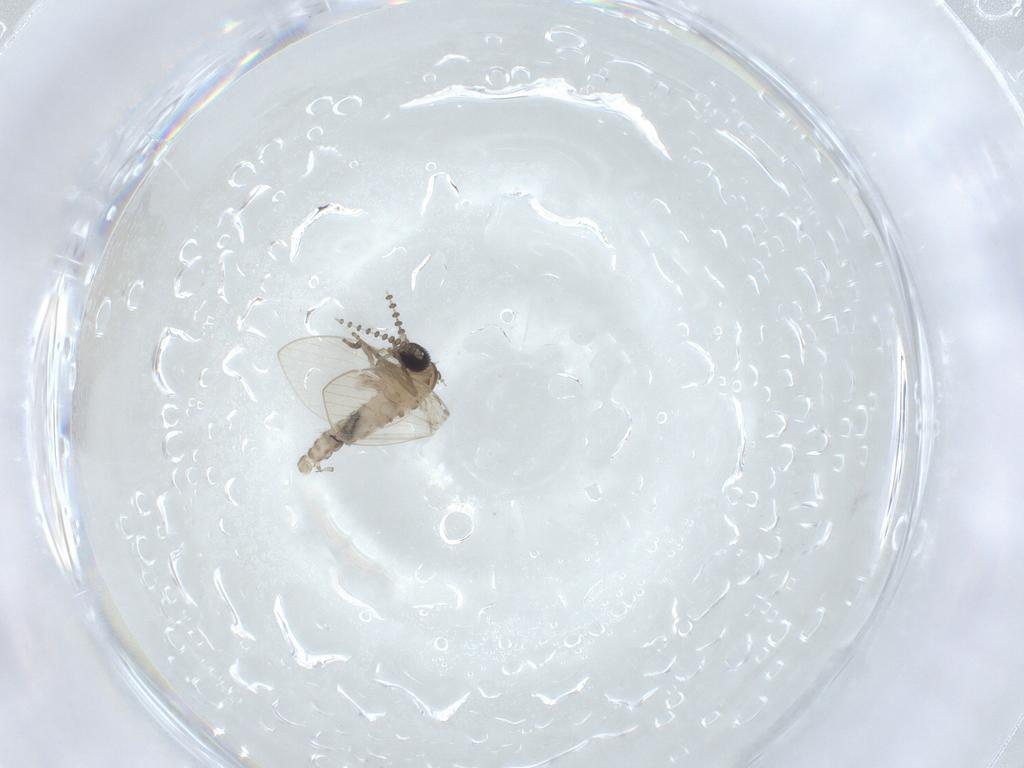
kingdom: Animalia
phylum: Arthropoda
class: Insecta
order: Diptera
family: Psychodidae
